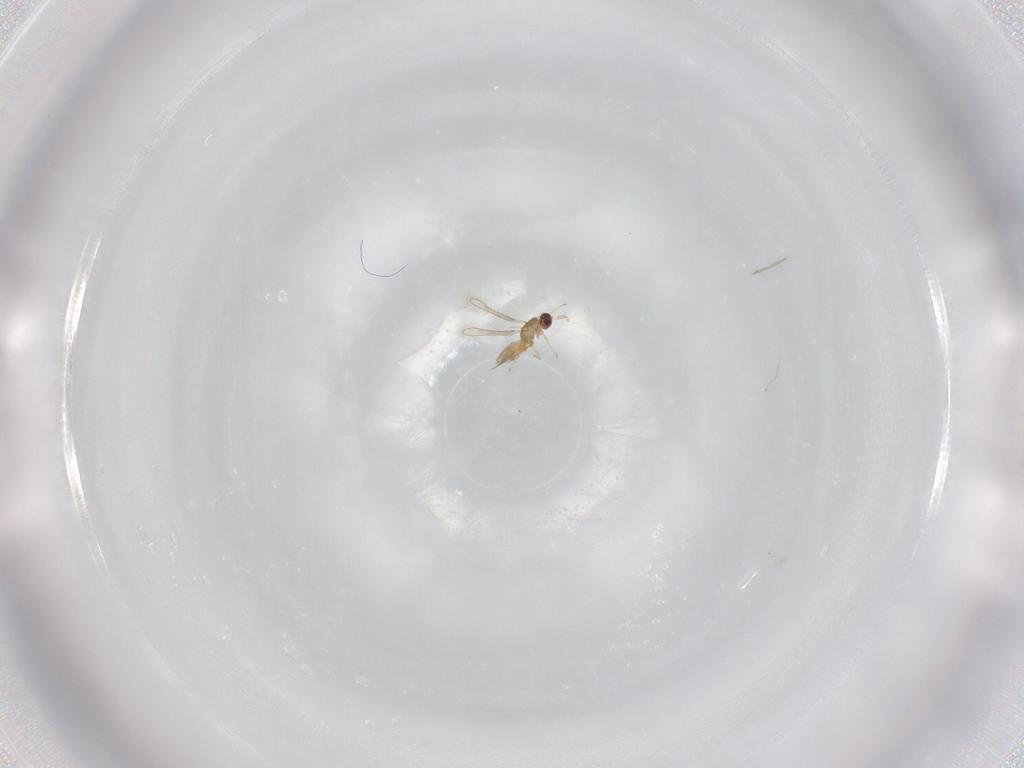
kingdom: Animalia
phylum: Arthropoda
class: Insecta
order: Hymenoptera
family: Mymaridae
